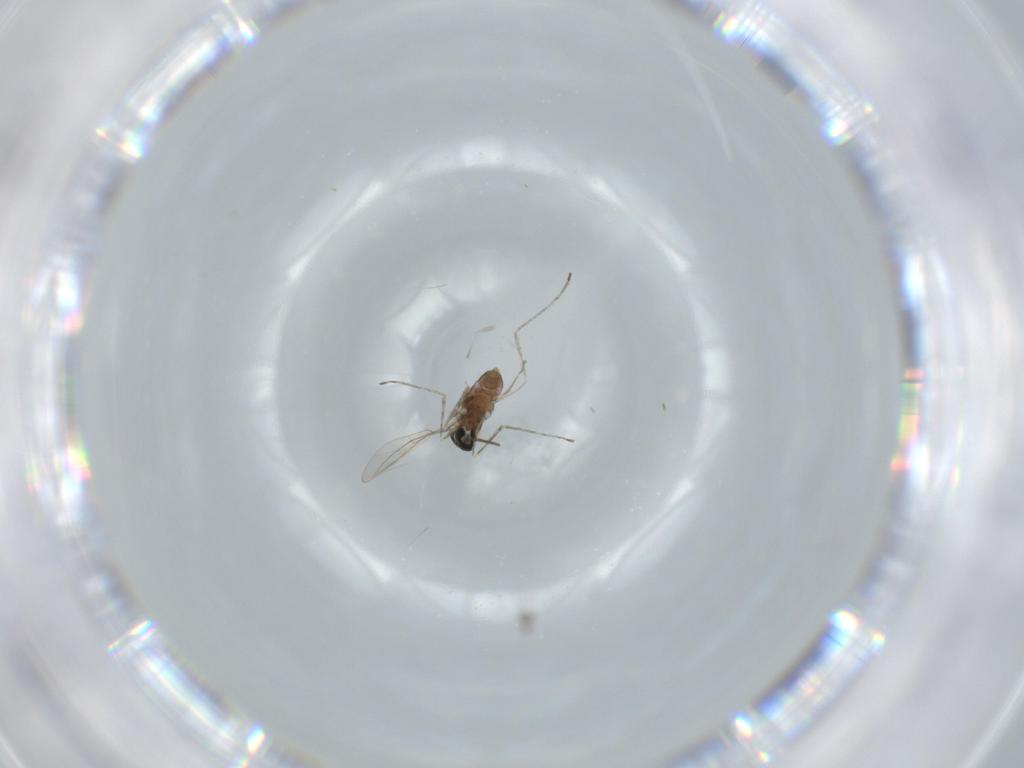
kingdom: Animalia
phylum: Arthropoda
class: Insecta
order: Diptera
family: Cecidomyiidae
